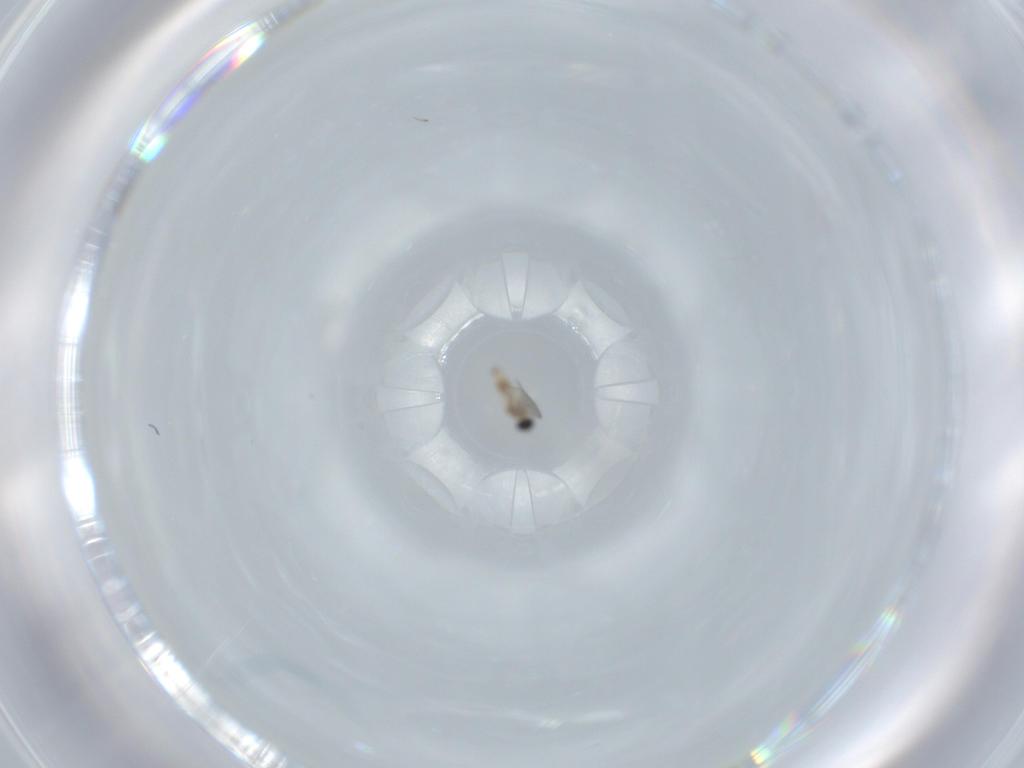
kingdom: Animalia
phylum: Arthropoda
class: Insecta
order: Diptera
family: Cecidomyiidae
